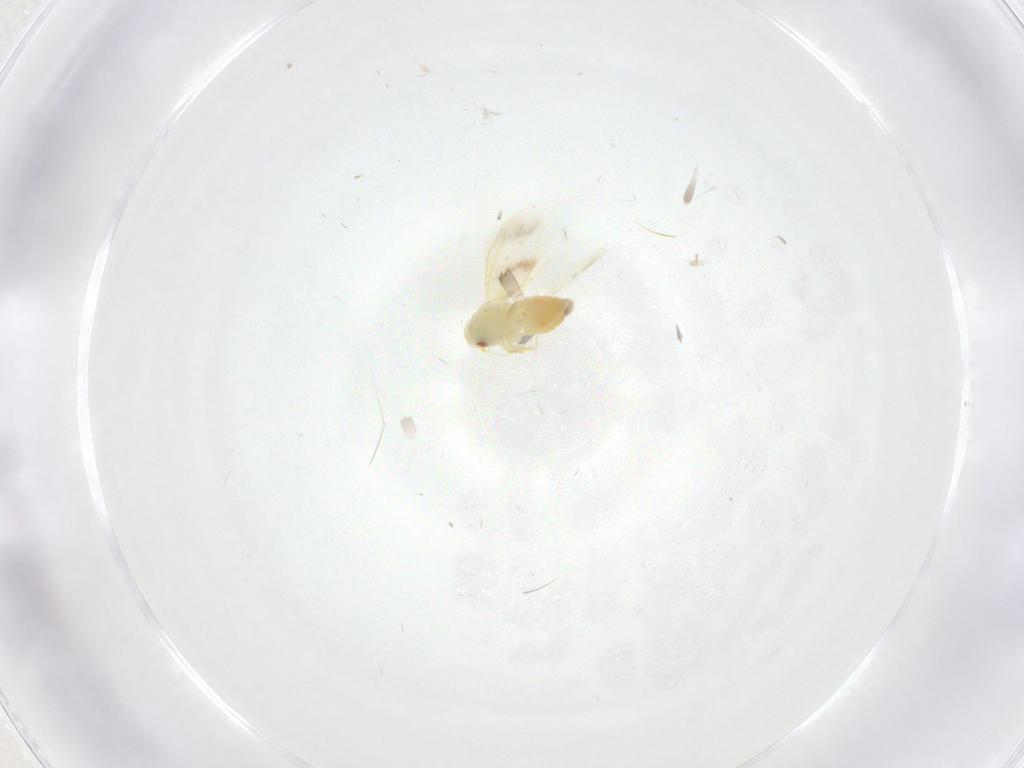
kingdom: Animalia
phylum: Arthropoda
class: Insecta
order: Hemiptera
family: Aleyrodidae
